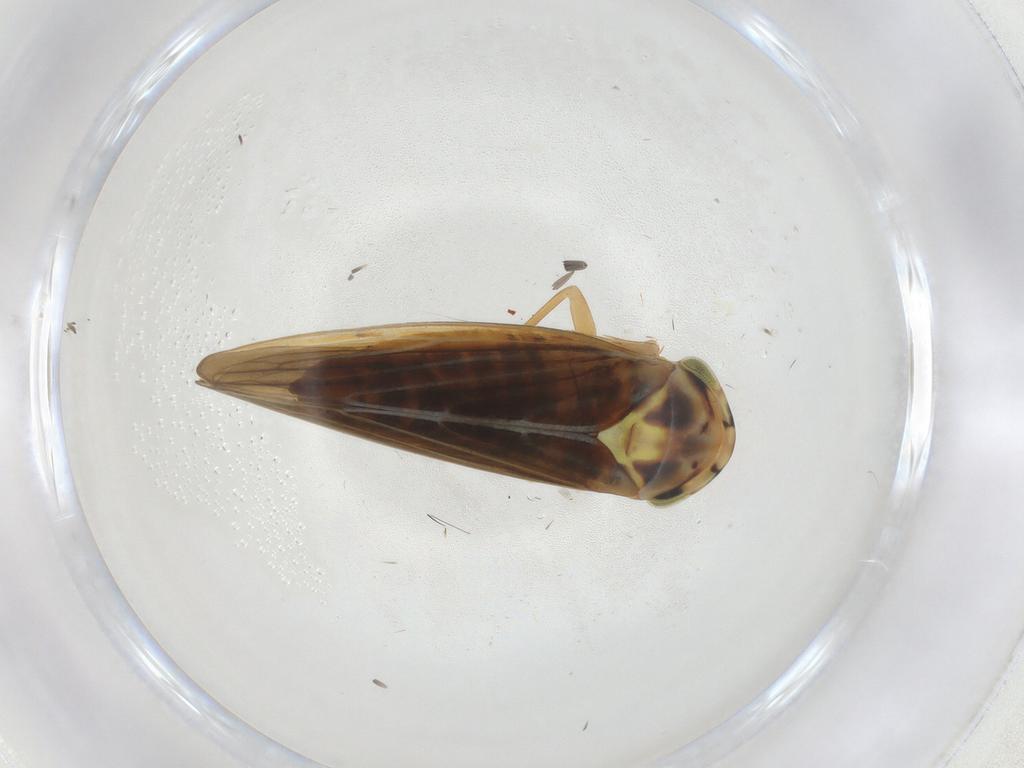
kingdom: Animalia
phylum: Arthropoda
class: Insecta
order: Hemiptera
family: Cicadellidae
